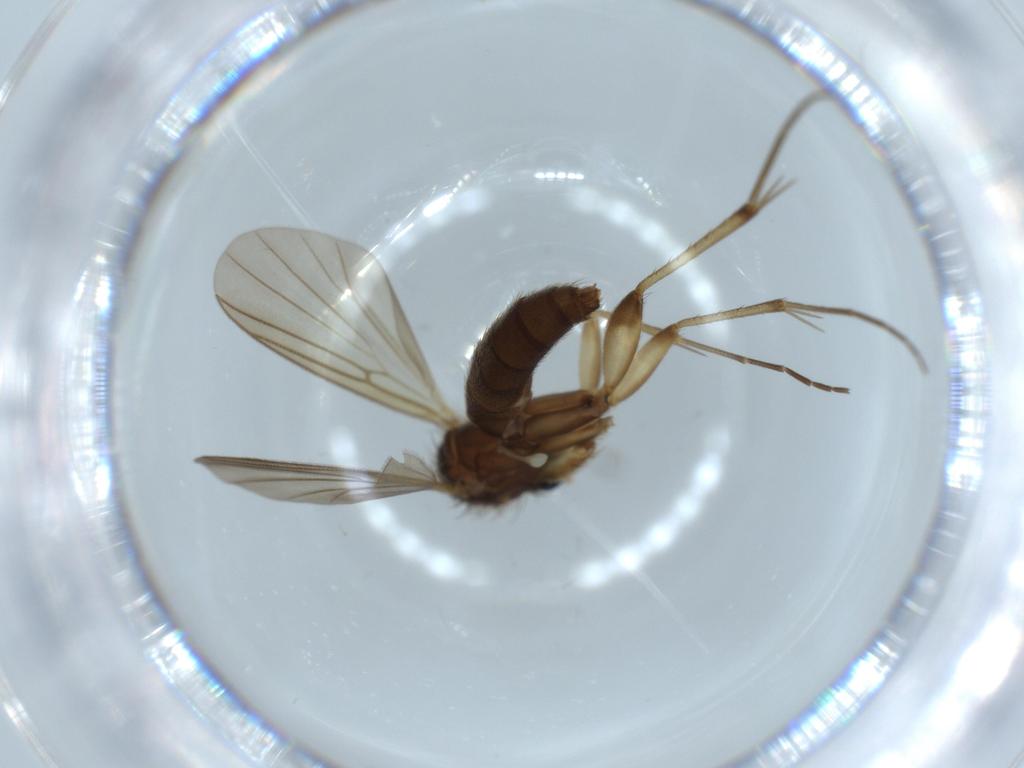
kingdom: Animalia
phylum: Arthropoda
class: Insecta
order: Diptera
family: Mycetophilidae
